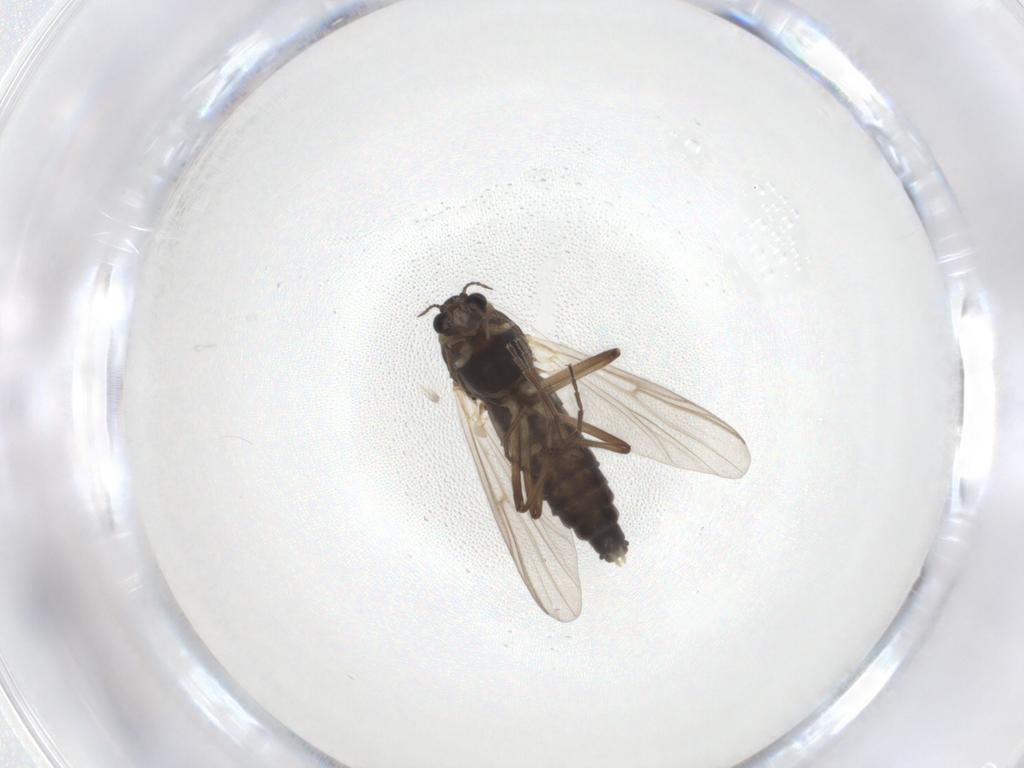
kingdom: Animalia
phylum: Arthropoda
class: Insecta
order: Diptera
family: Chironomidae
